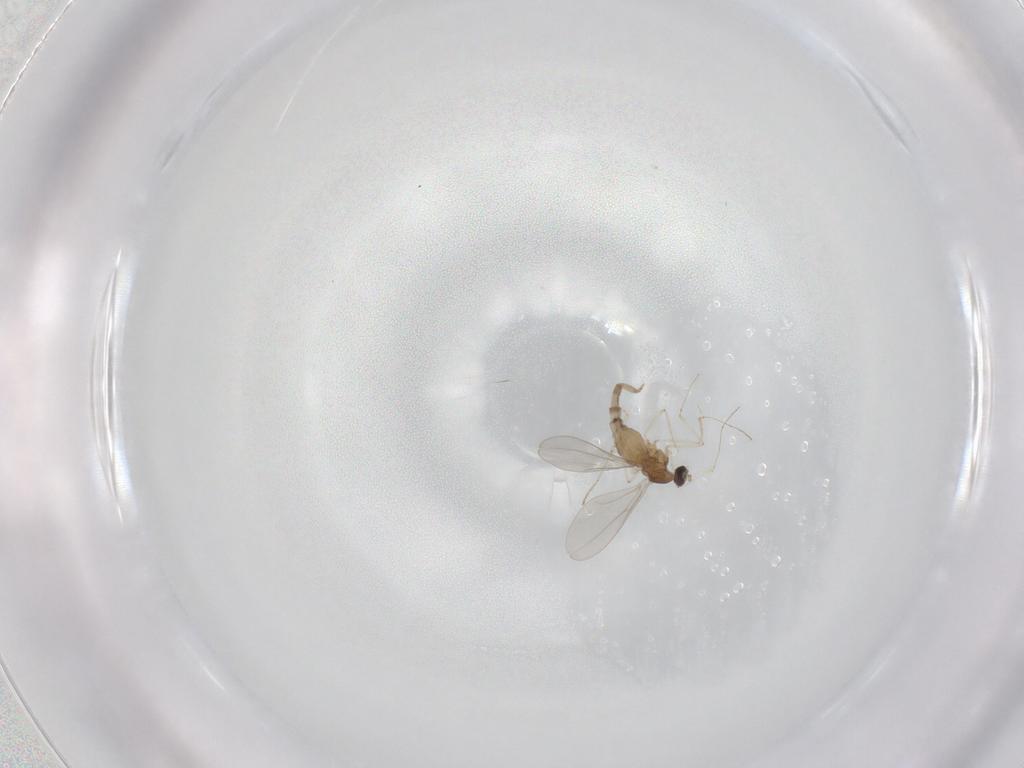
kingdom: Animalia
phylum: Arthropoda
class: Insecta
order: Diptera
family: Cecidomyiidae
